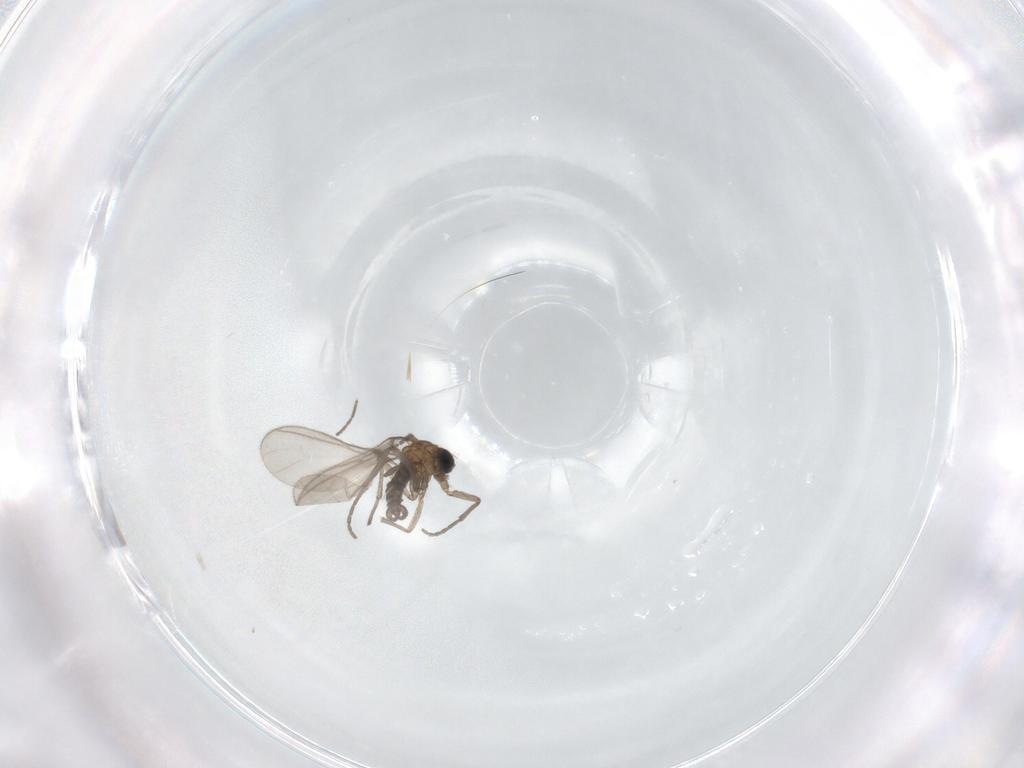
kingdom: Animalia
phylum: Arthropoda
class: Insecta
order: Diptera
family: Sciaridae
